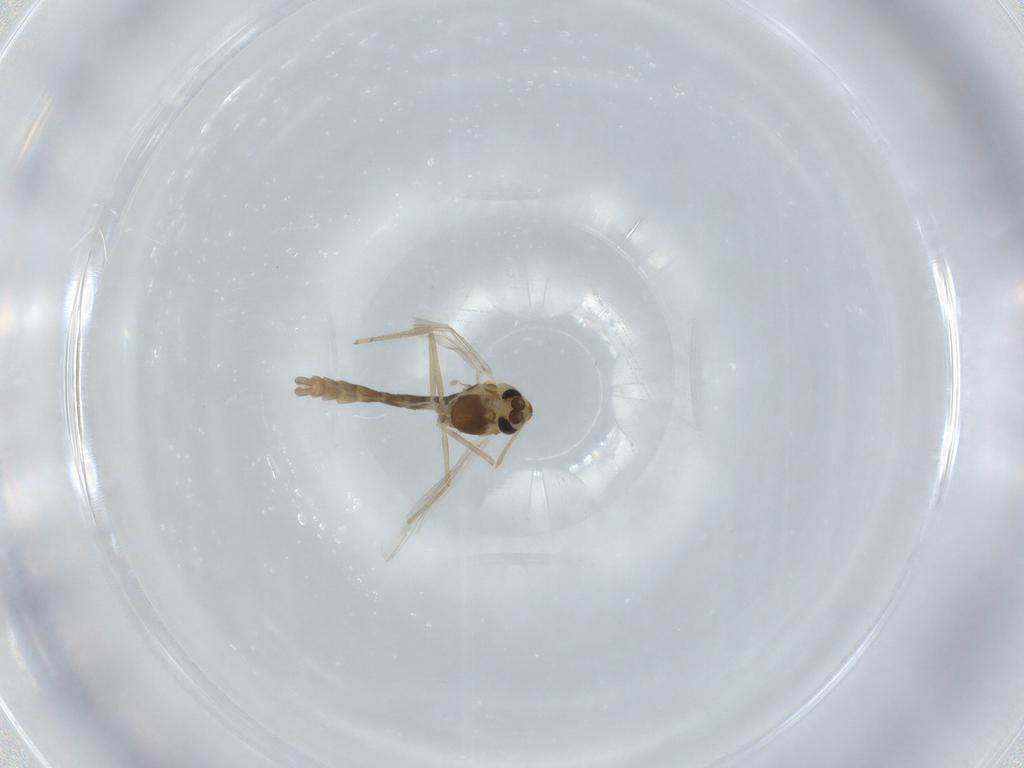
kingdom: Animalia
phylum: Arthropoda
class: Insecta
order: Diptera
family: Chironomidae
